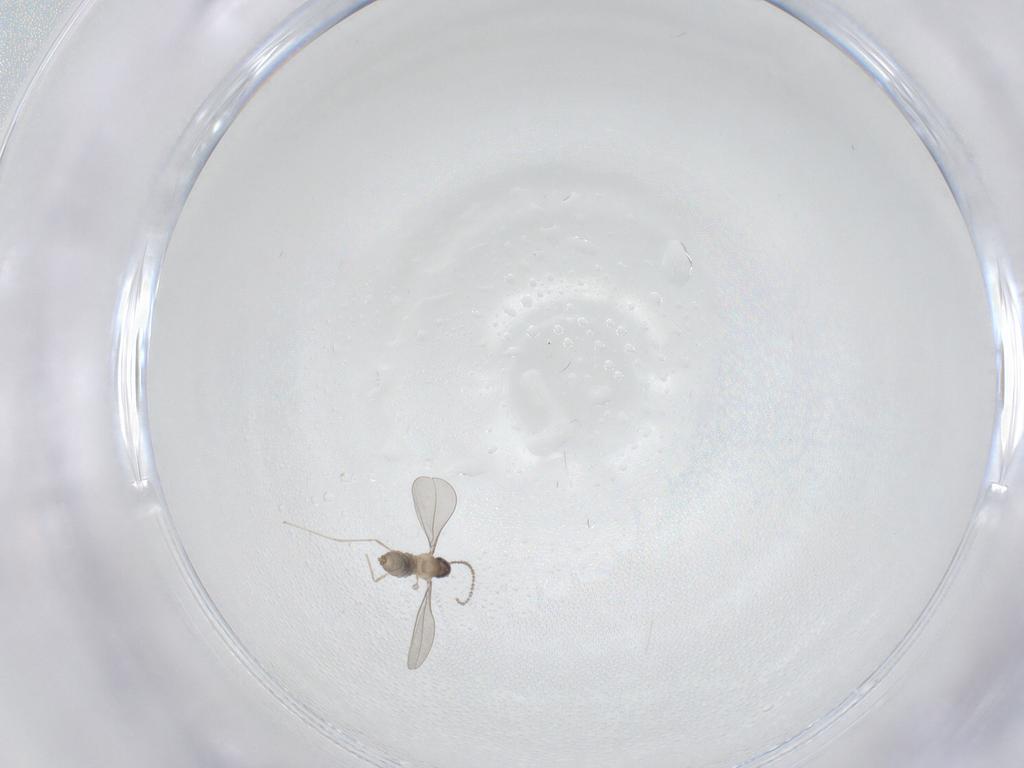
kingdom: Animalia
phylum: Arthropoda
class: Insecta
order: Diptera
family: Cecidomyiidae
